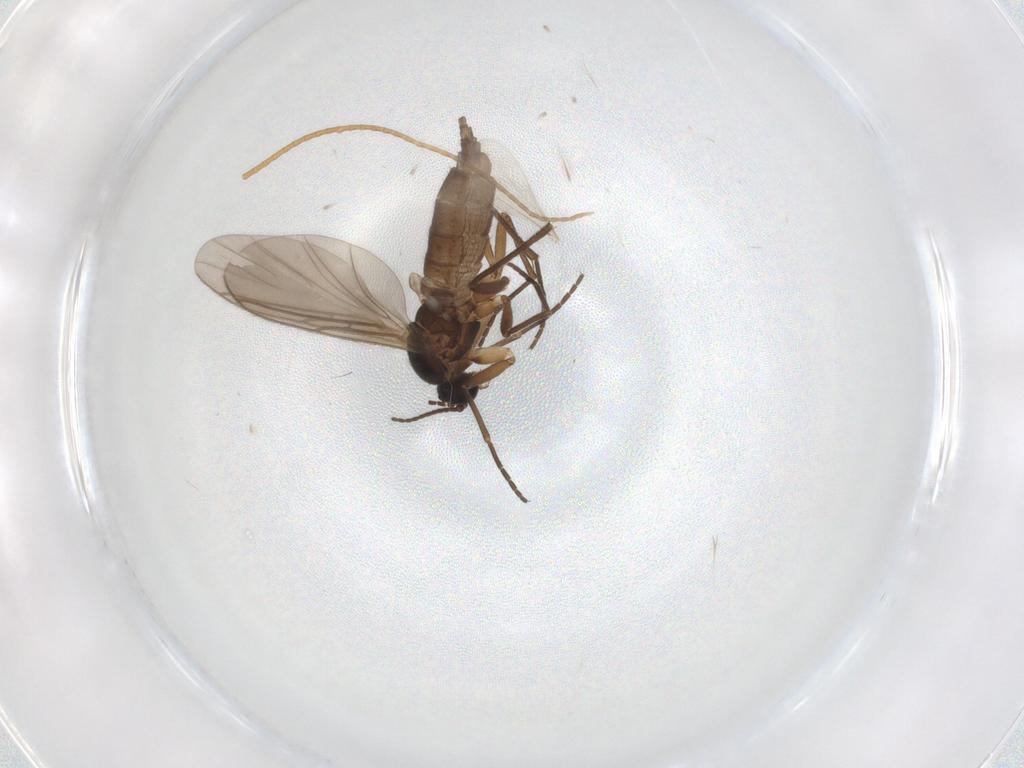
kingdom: Animalia
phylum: Arthropoda
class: Insecta
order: Diptera
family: Sciaridae
